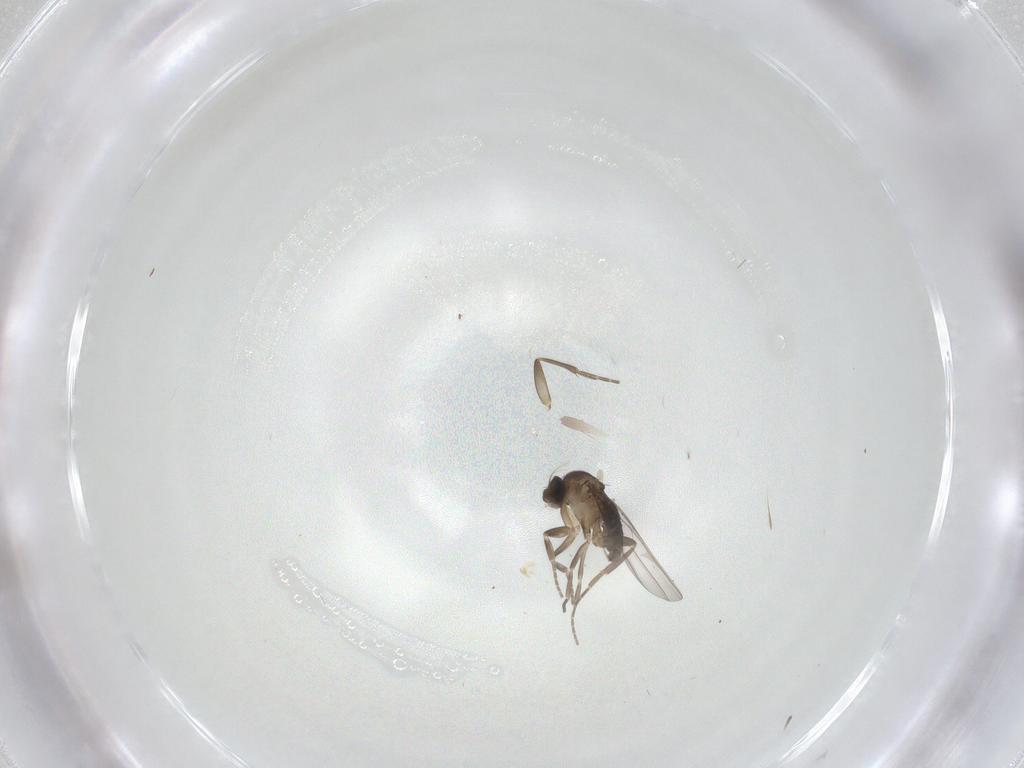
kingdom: Animalia
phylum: Arthropoda
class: Insecta
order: Diptera
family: Phoridae
